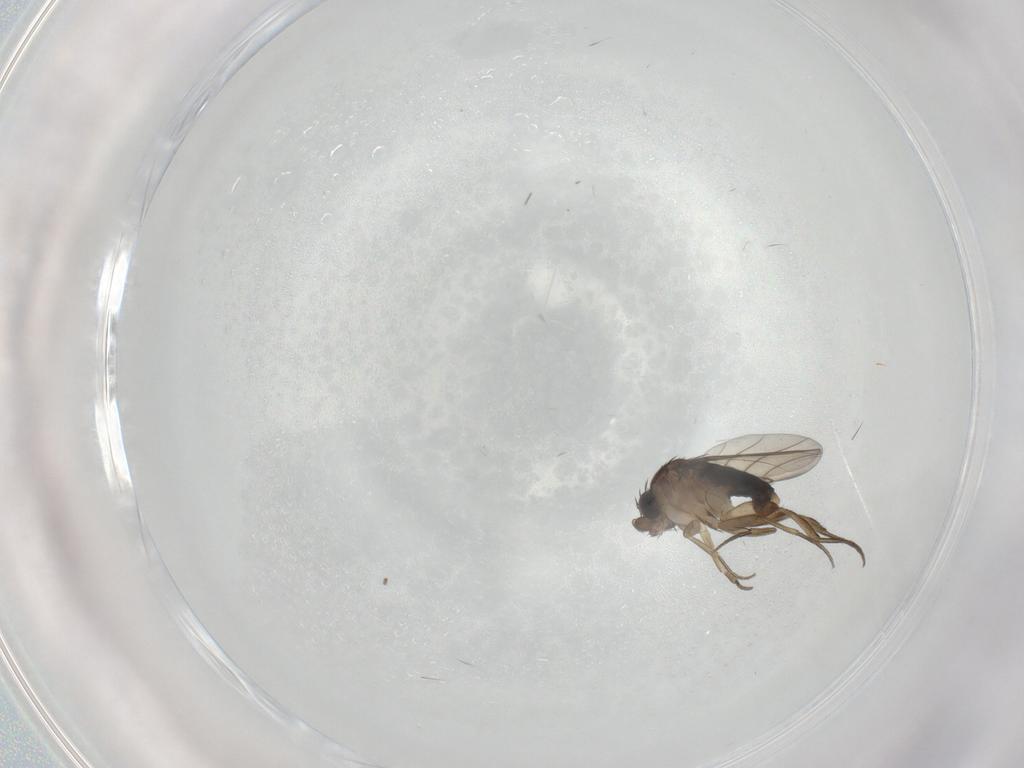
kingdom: Animalia
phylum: Arthropoda
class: Insecta
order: Diptera
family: Phoridae
